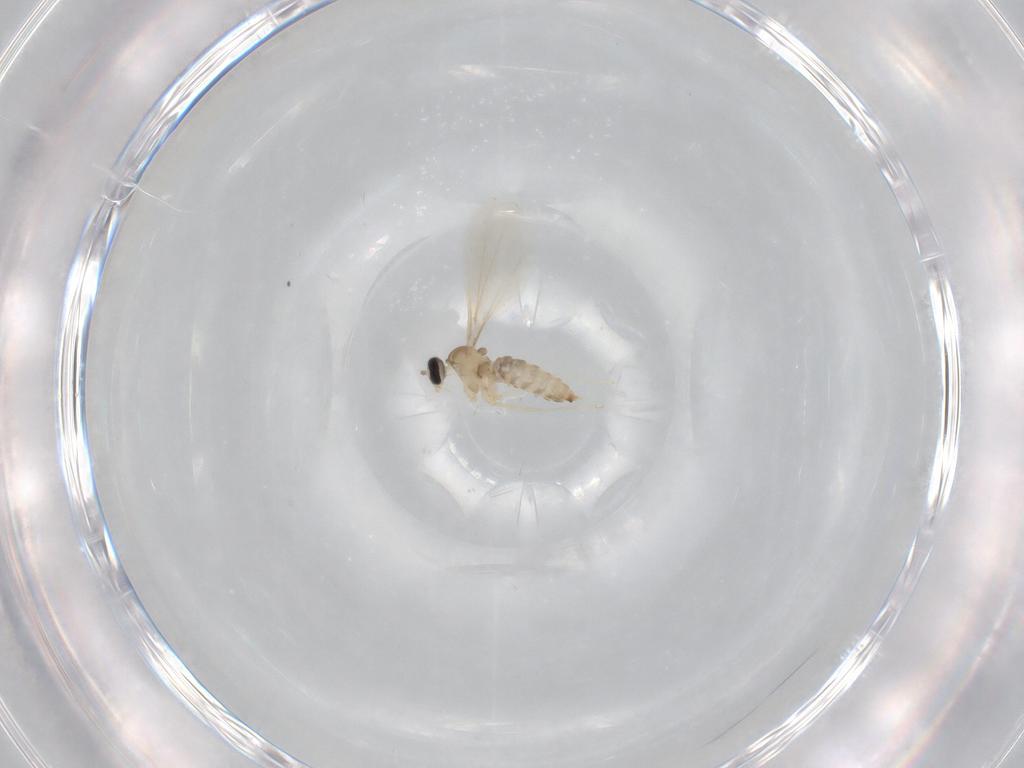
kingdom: Animalia
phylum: Arthropoda
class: Insecta
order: Diptera
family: Cecidomyiidae
